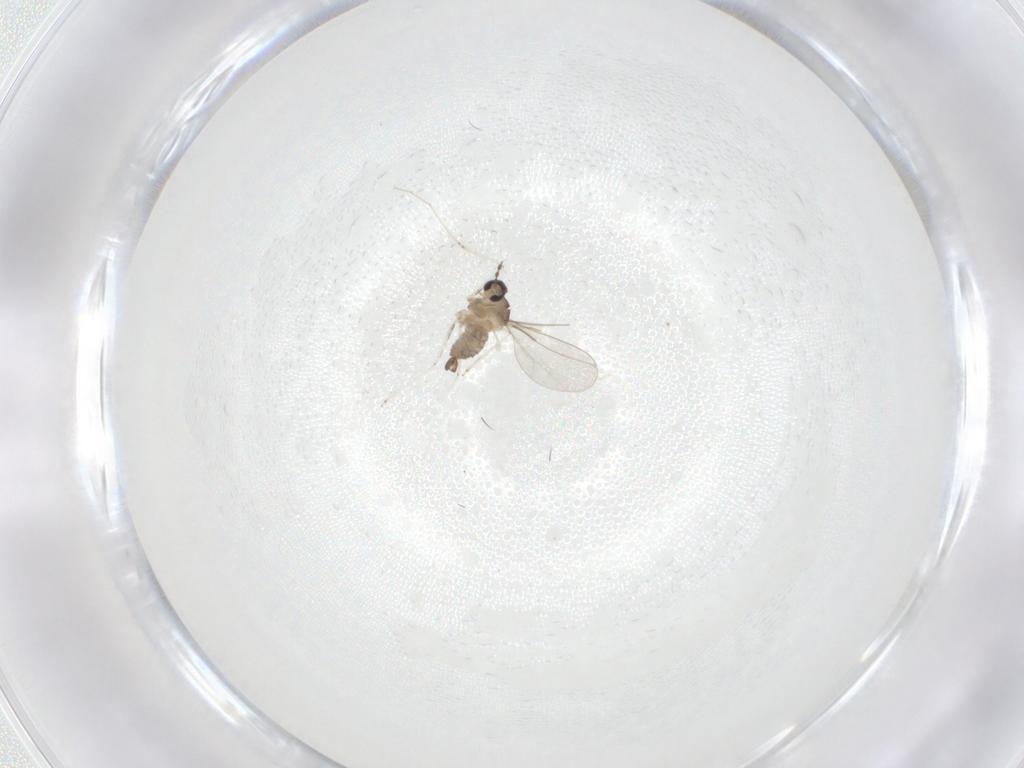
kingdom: Animalia
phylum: Arthropoda
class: Insecta
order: Diptera
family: Cecidomyiidae
